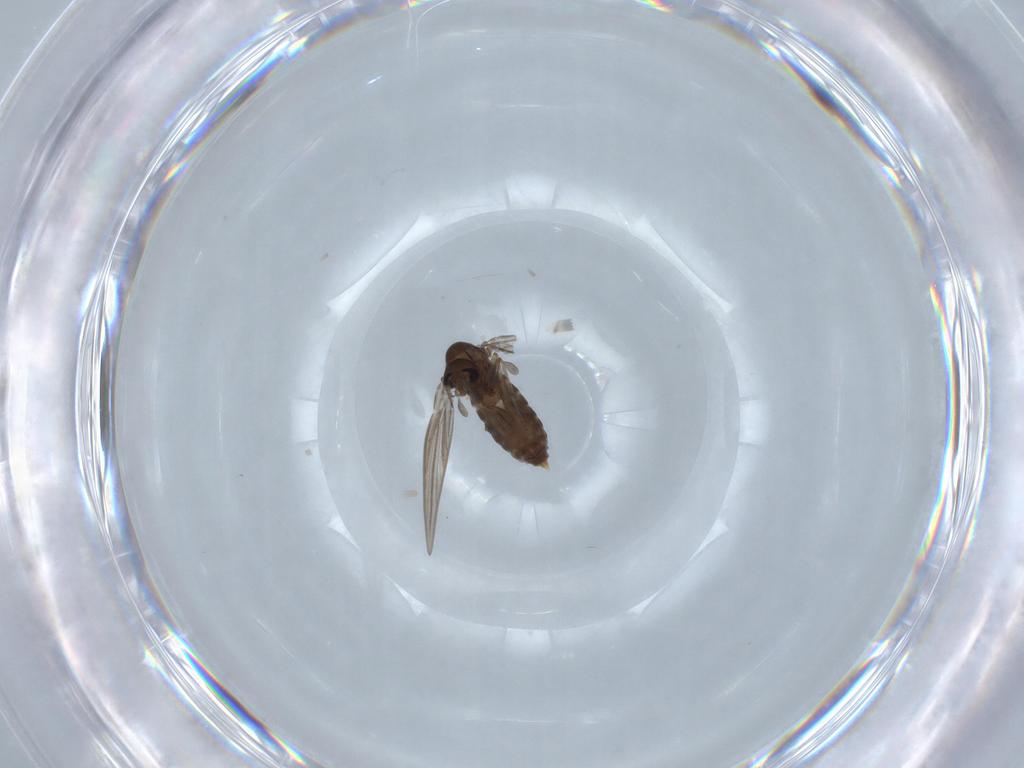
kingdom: Animalia
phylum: Arthropoda
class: Insecta
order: Diptera
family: Psychodidae
